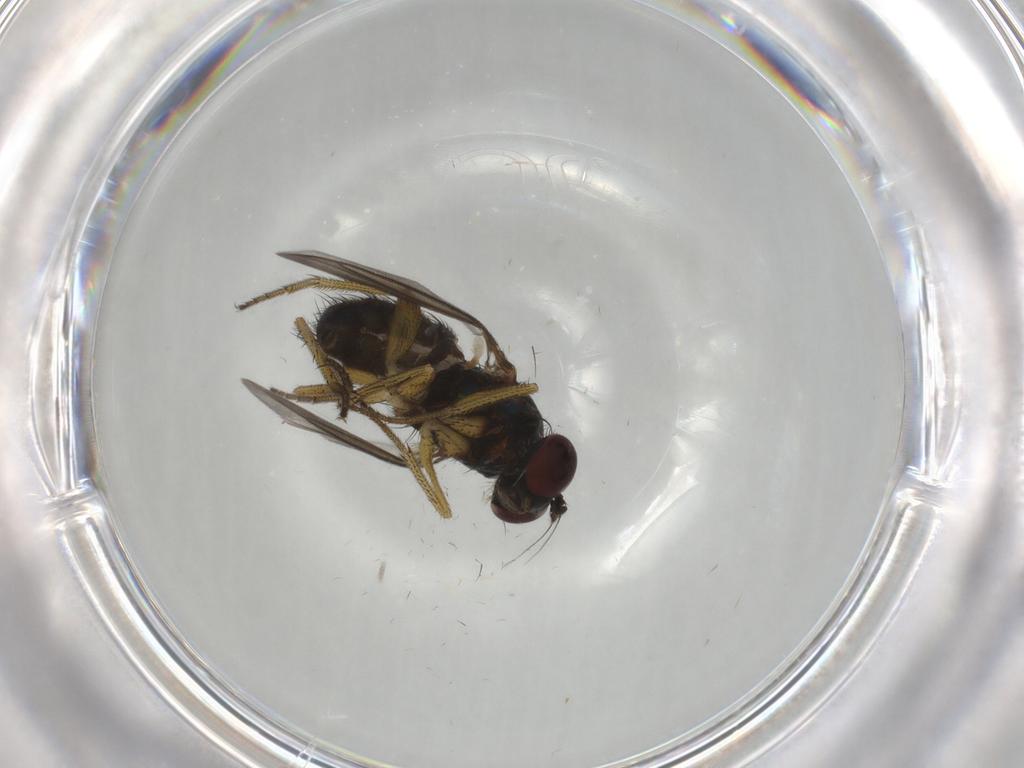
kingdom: Animalia
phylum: Arthropoda
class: Insecta
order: Diptera
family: Dolichopodidae
